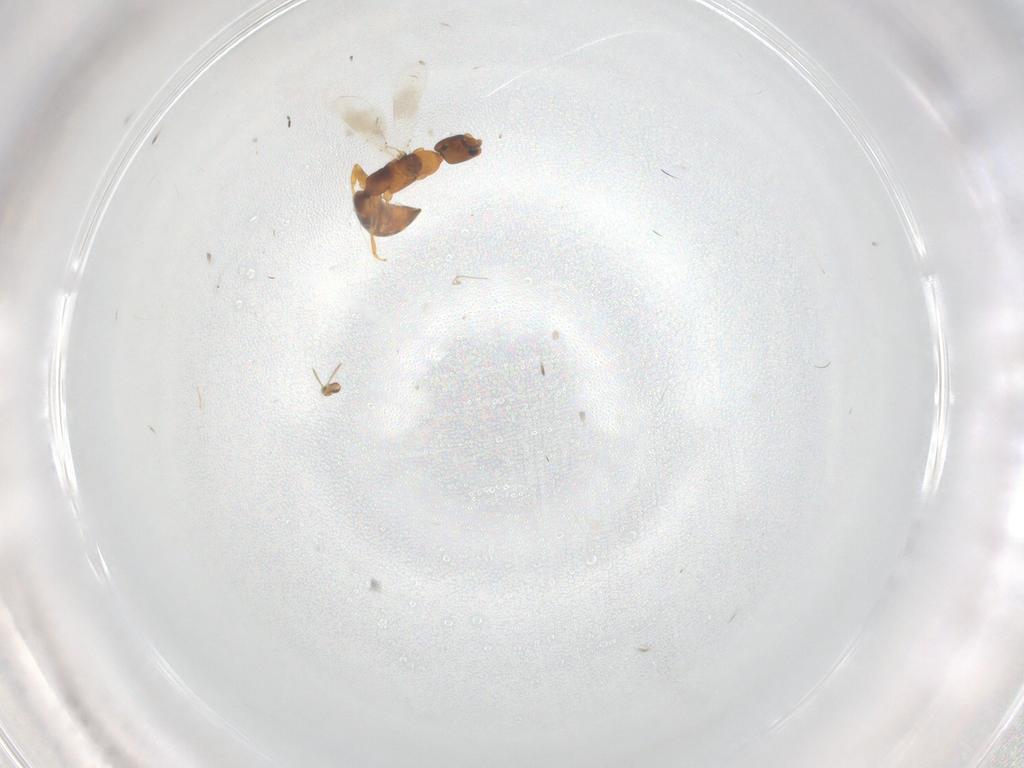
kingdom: Animalia
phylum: Arthropoda
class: Insecta
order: Hymenoptera
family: Bethylidae
